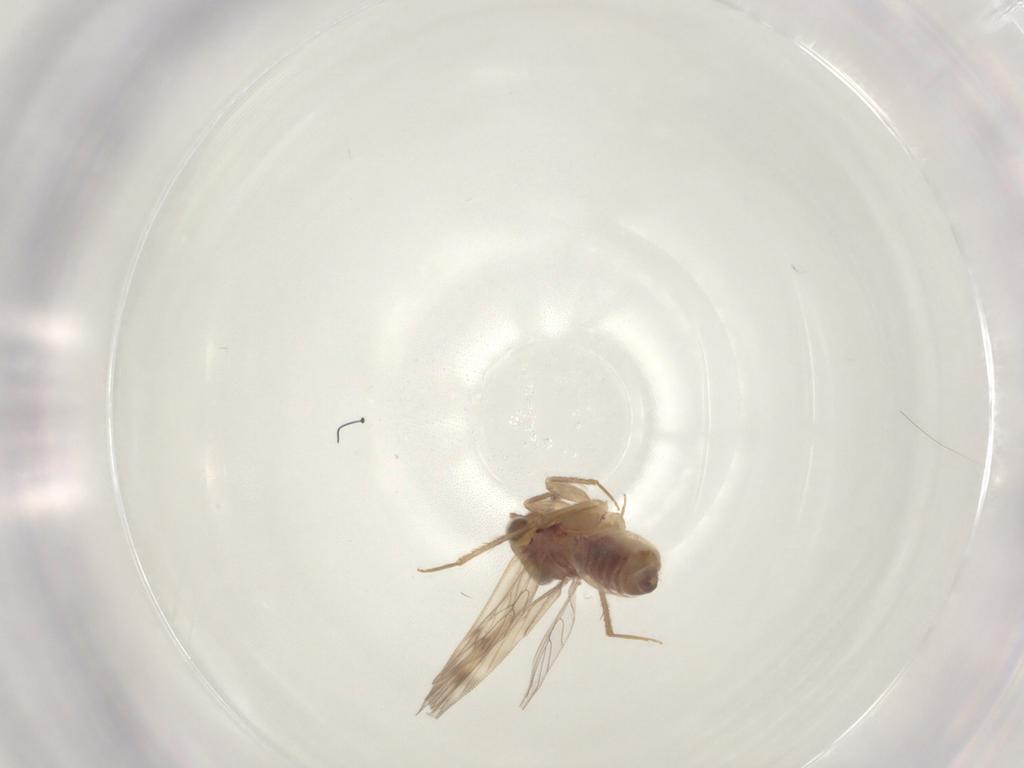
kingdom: Animalia
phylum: Arthropoda
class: Insecta
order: Psocodea
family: Lepidopsocidae
